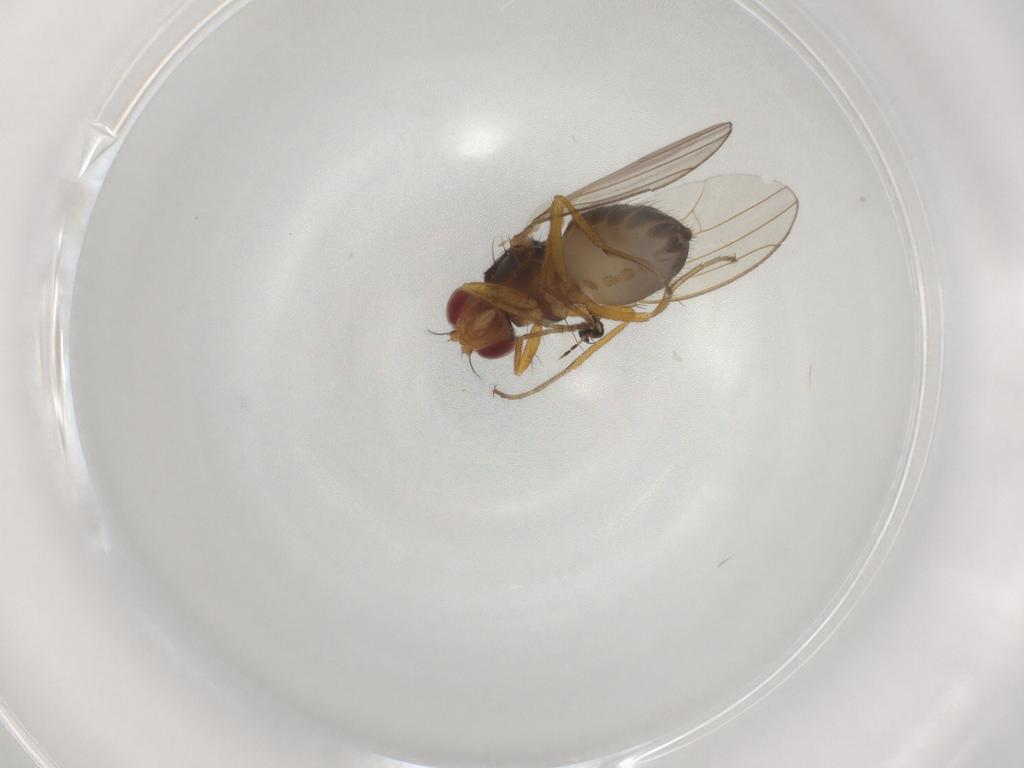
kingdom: Animalia
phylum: Arthropoda
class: Insecta
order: Diptera
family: Drosophilidae
